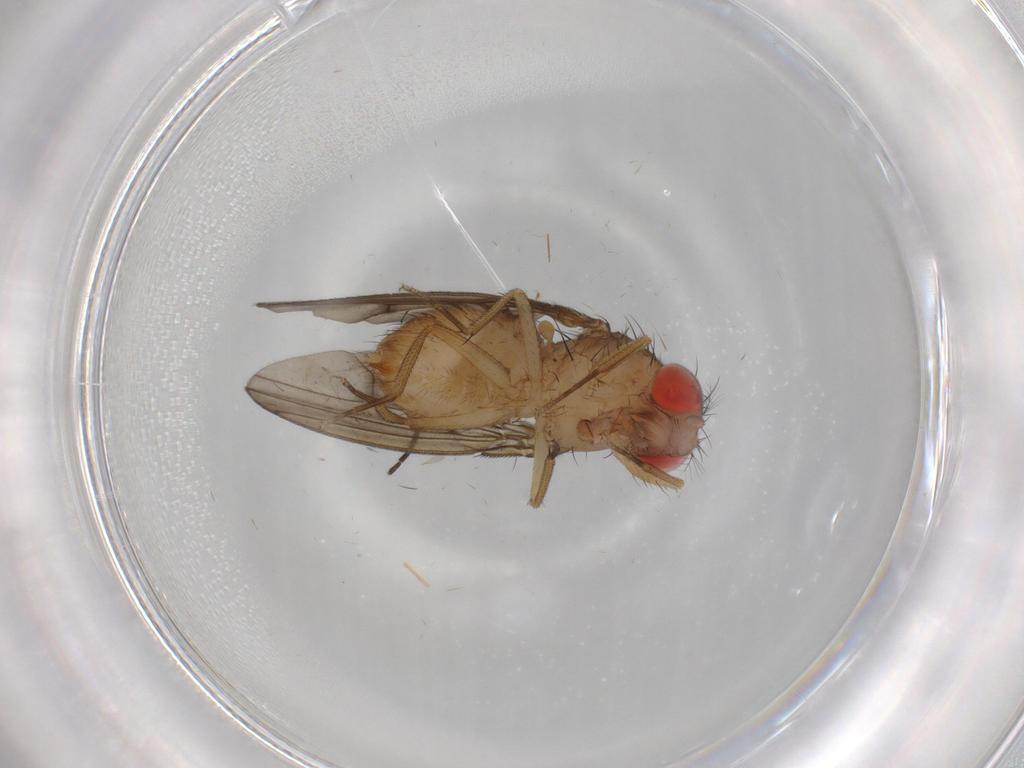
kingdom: Animalia
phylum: Arthropoda
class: Insecta
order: Diptera
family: Drosophilidae
